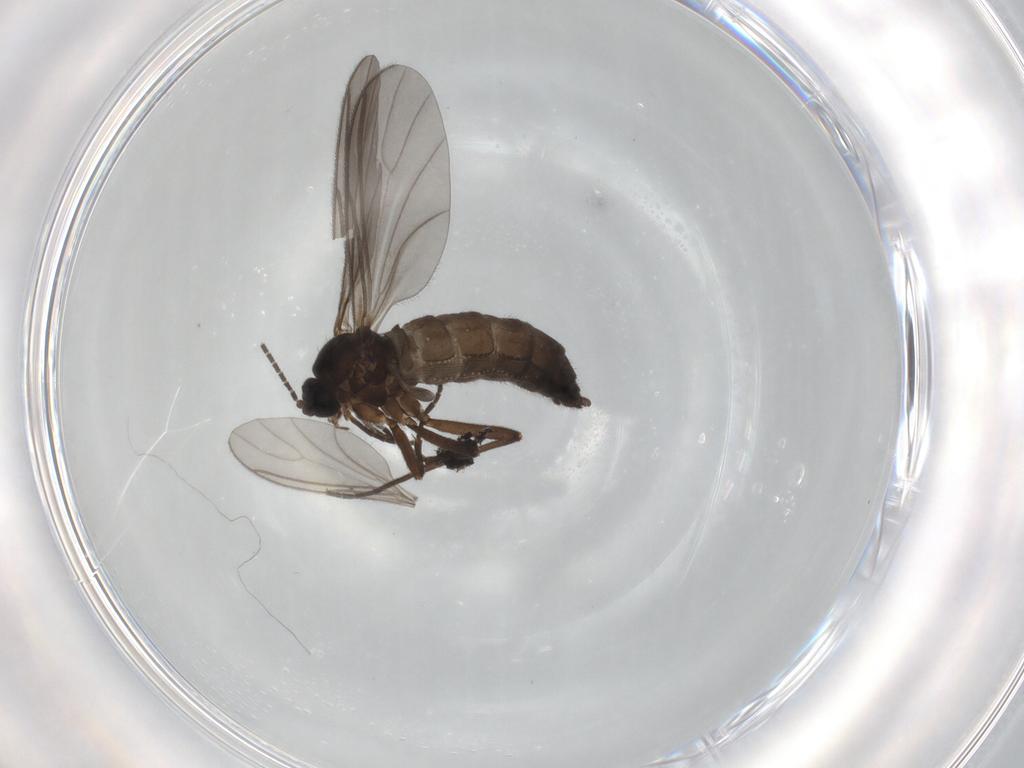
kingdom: Animalia
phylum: Arthropoda
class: Insecta
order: Diptera
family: Sciaridae
